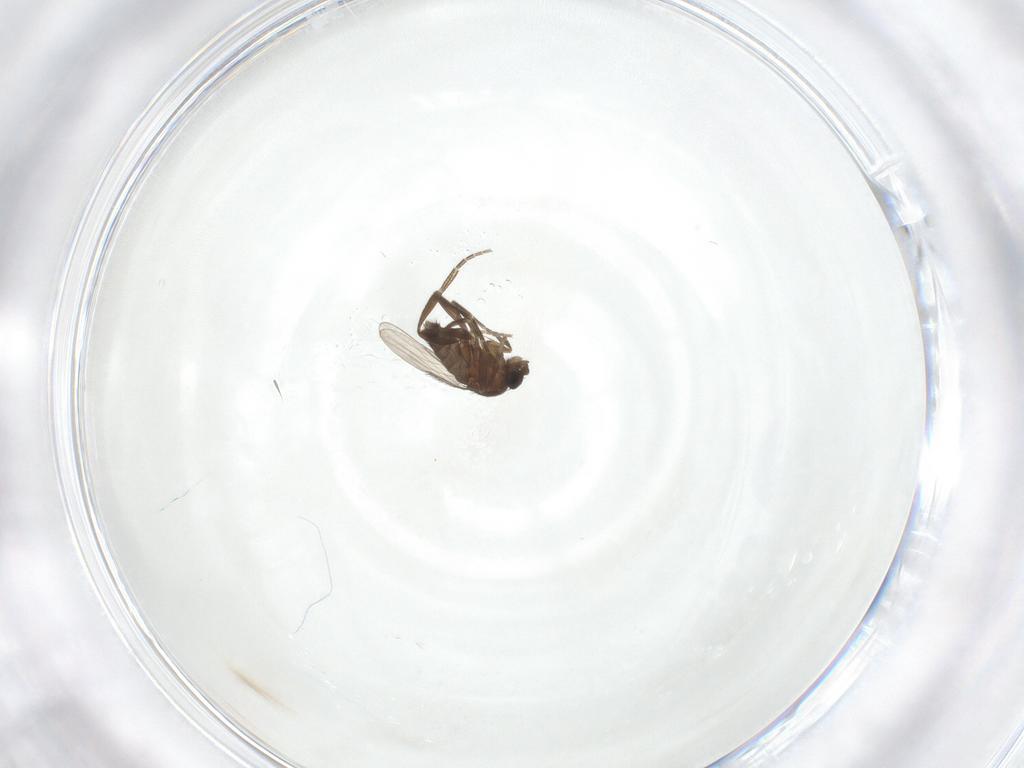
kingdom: Animalia
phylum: Arthropoda
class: Insecta
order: Diptera
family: Phoridae
